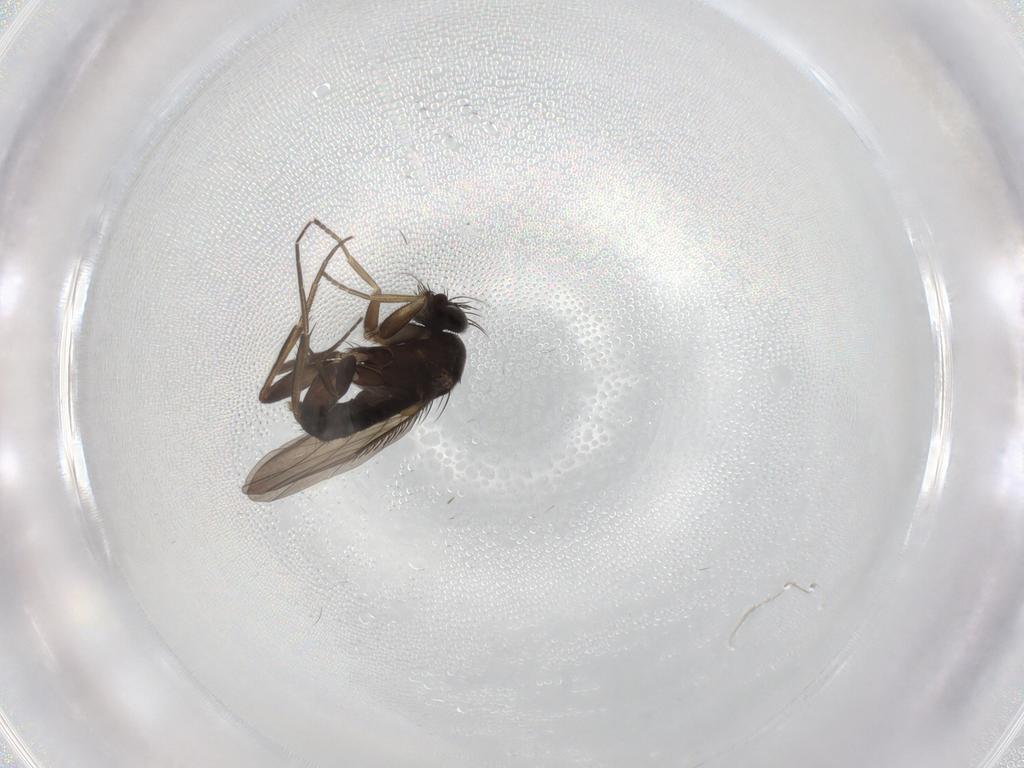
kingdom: Animalia
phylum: Arthropoda
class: Insecta
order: Diptera
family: Phoridae
